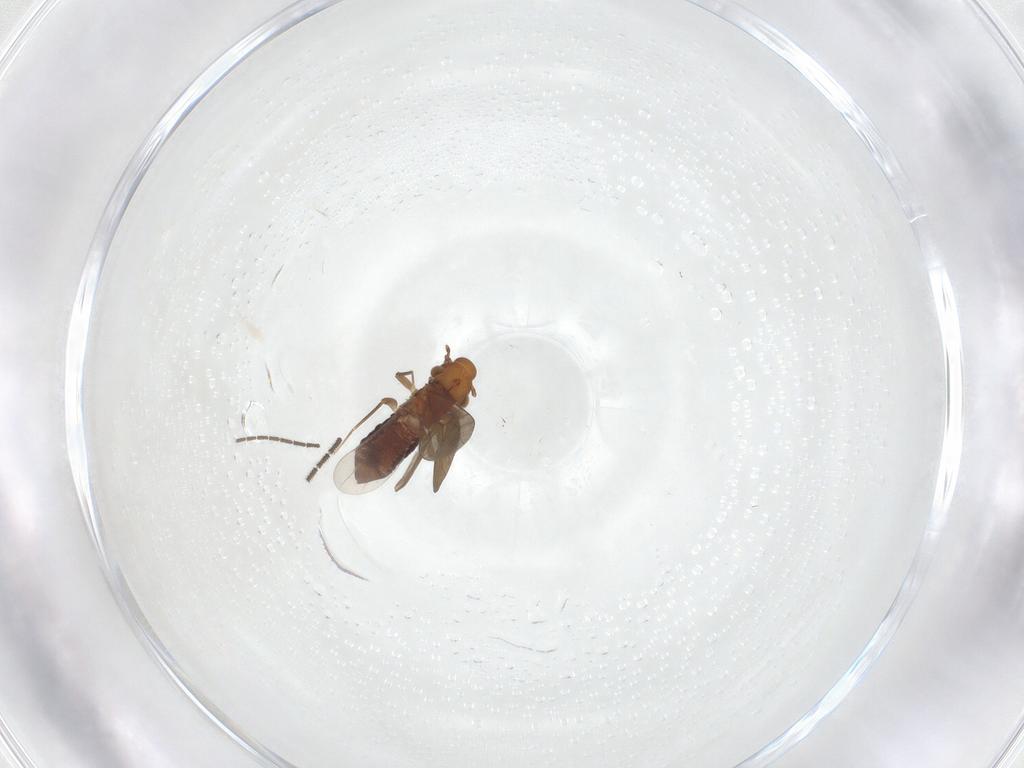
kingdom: Animalia
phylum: Arthropoda
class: Insecta
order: Psocodea
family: Lepidopsocidae
